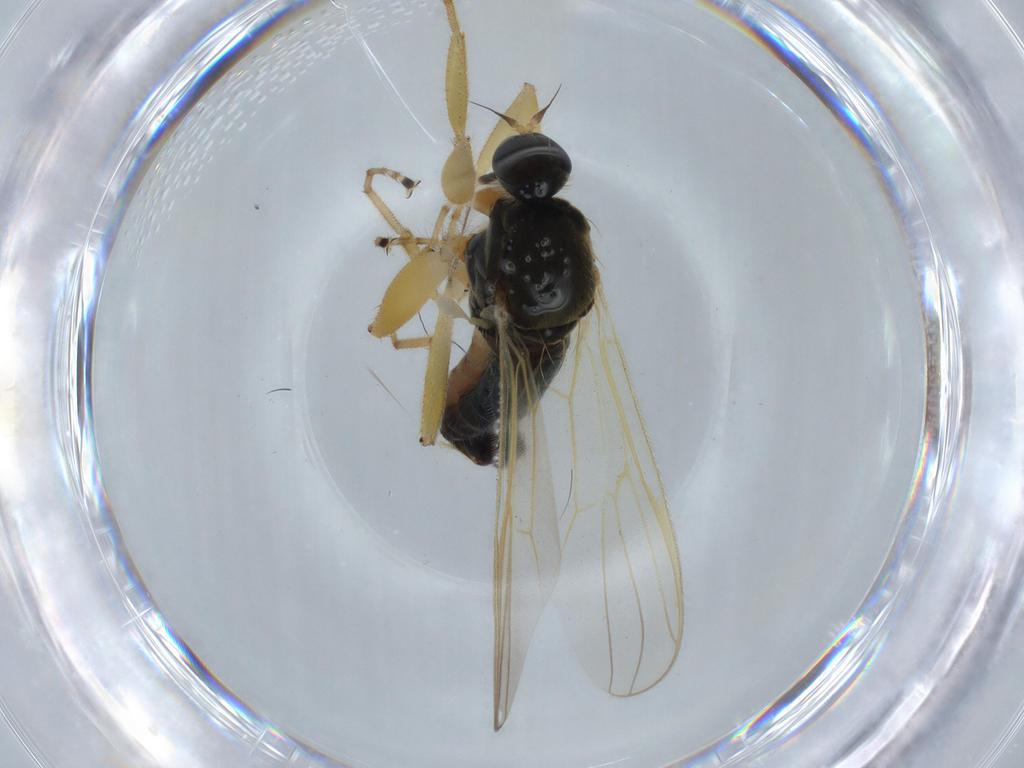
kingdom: Animalia
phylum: Arthropoda
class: Insecta
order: Diptera
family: Hybotidae
